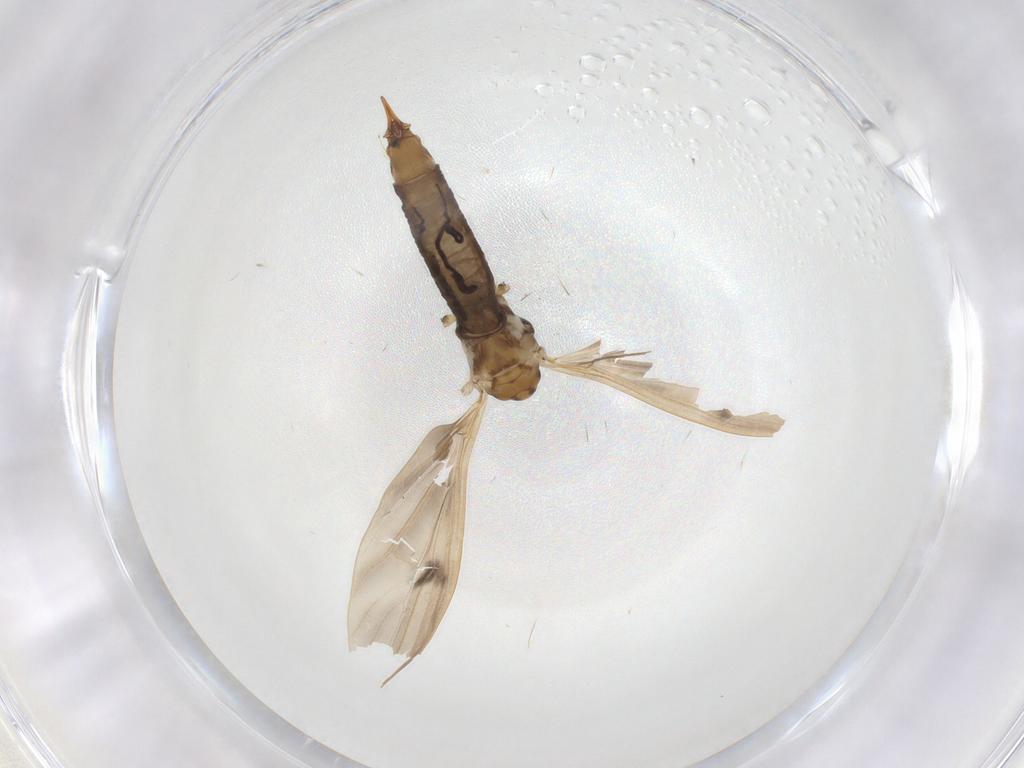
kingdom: Animalia
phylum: Arthropoda
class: Insecta
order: Diptera
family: Limoniidae
